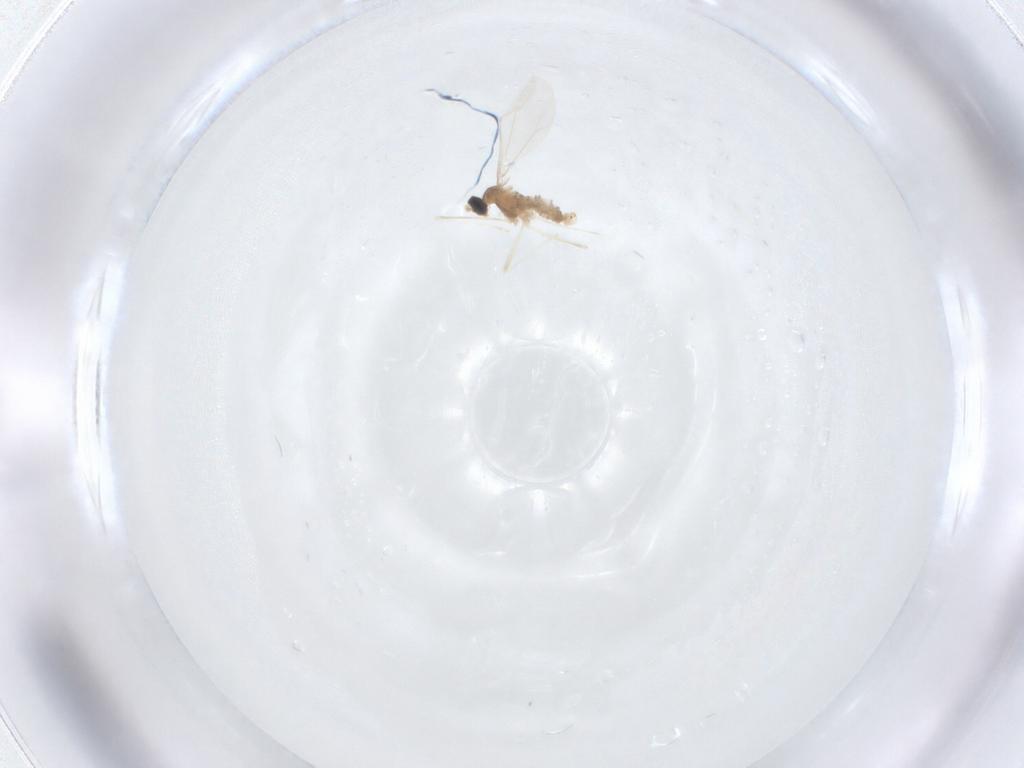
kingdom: Animalia
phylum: Arthropoda
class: Insecta
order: Diptera
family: Cecidomyiidae
